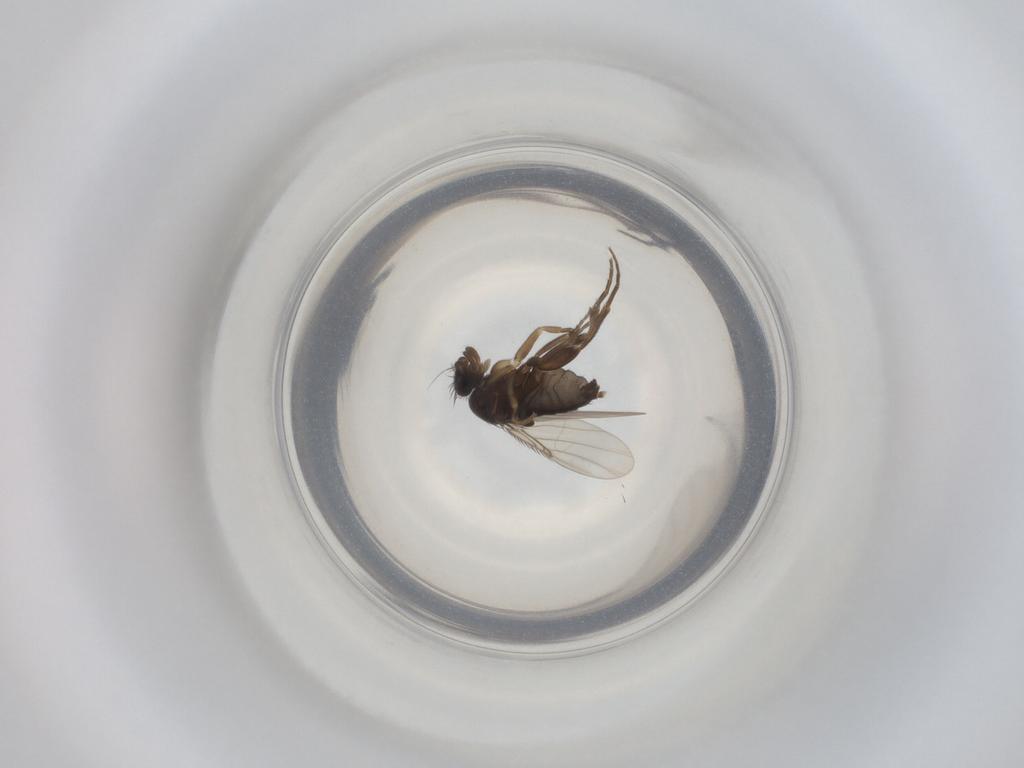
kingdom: Animalia
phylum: Arthropoda
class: Insecta
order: Diptera
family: Phoridae
